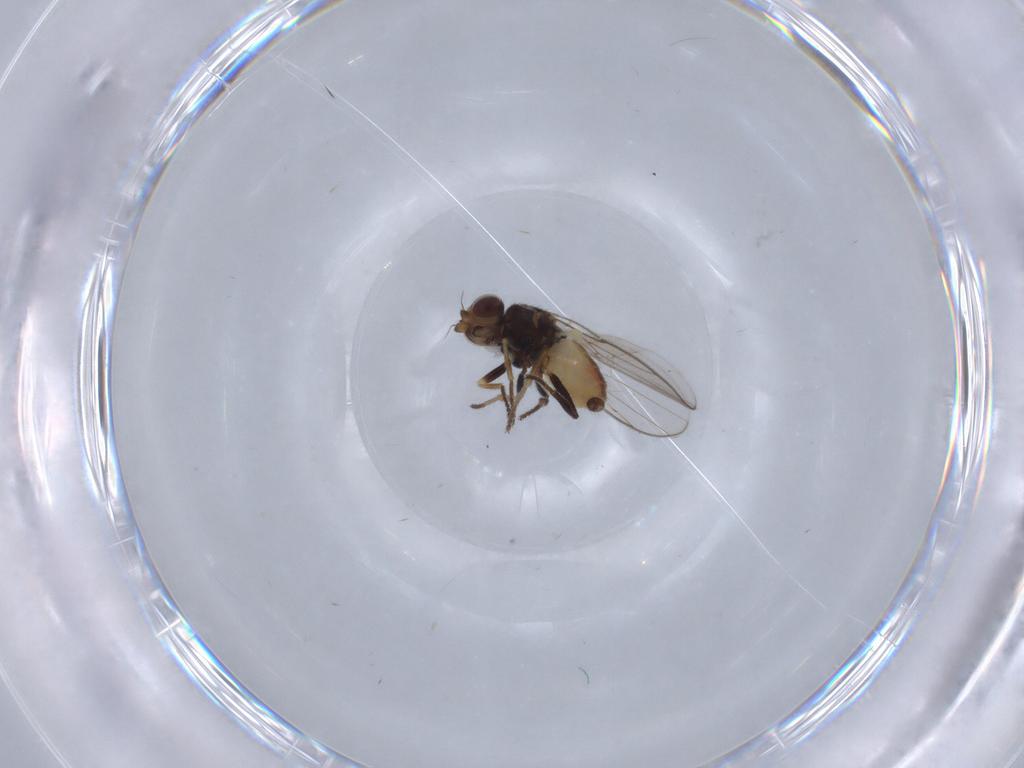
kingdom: Animalia
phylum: Arthropoda
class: Insecta
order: Diptera
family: Chloropidae
